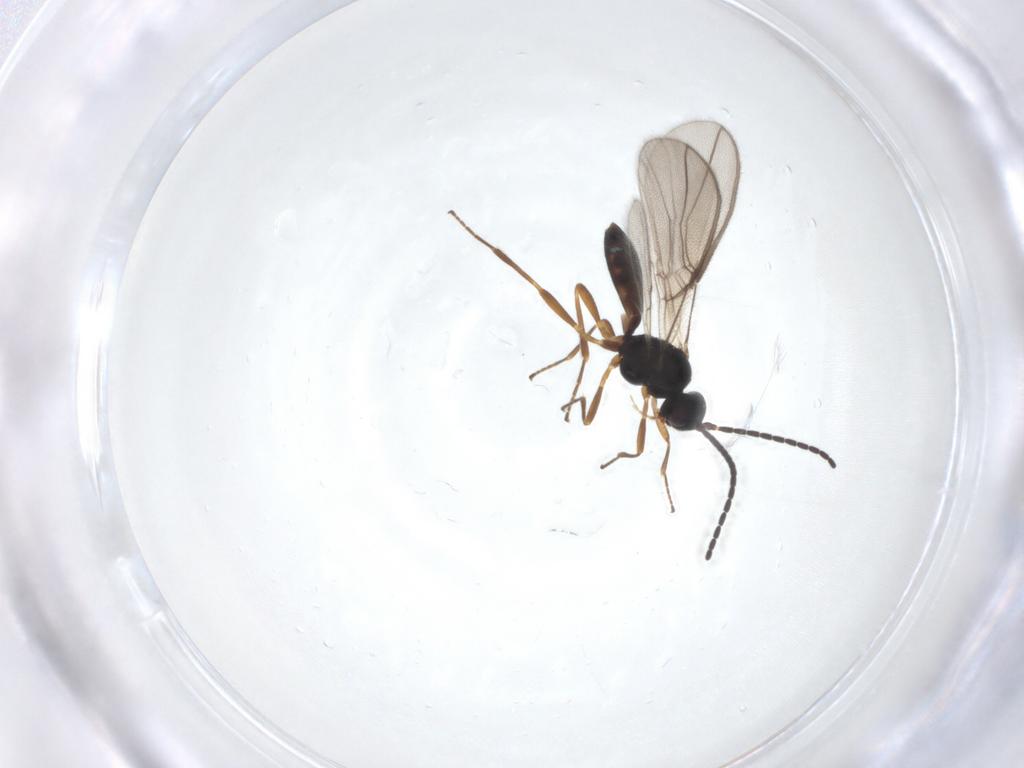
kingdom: Animalia
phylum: Arthropoda
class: Insecta
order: Hymenoptera
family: Braconidae
